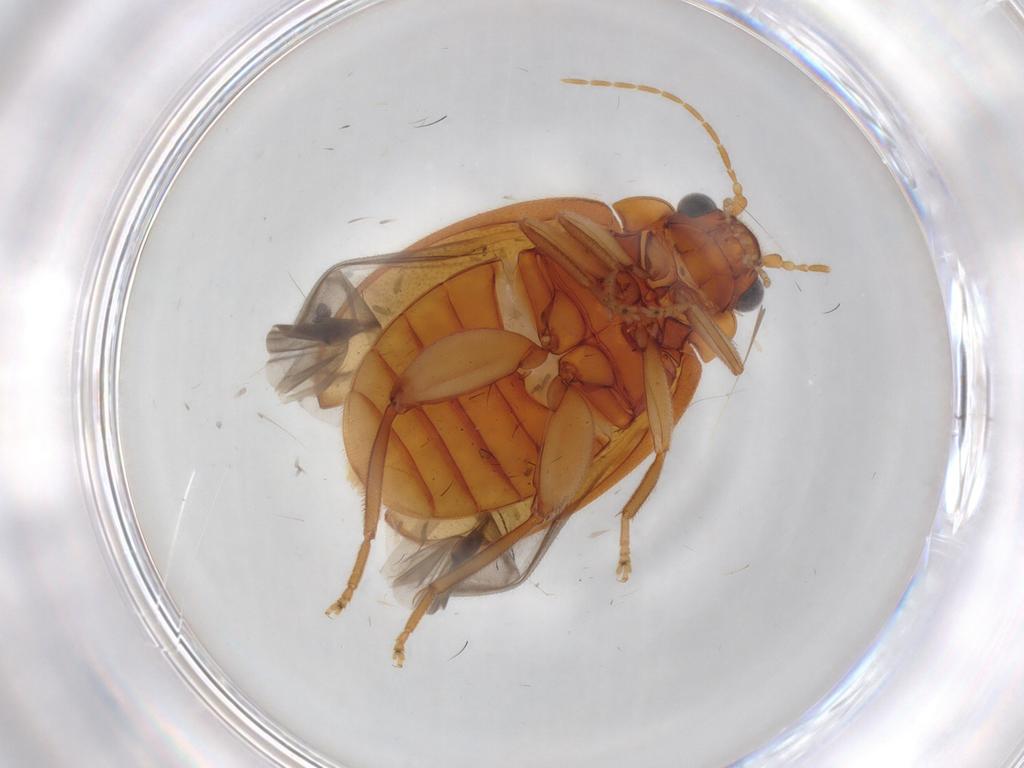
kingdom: Animalia
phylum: Arthropoda
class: Insecta
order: Coleoptera
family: Scirtidae
